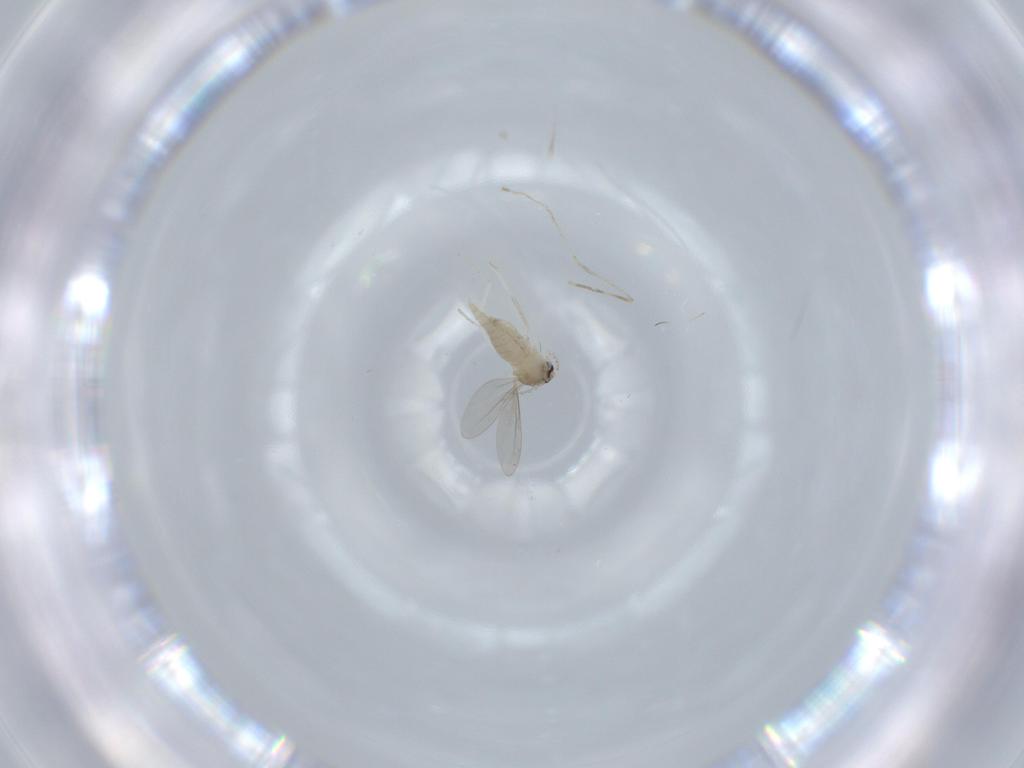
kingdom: Animalia
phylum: Arthropoda
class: Insecta
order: Diptera
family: Cecidomyiidae
